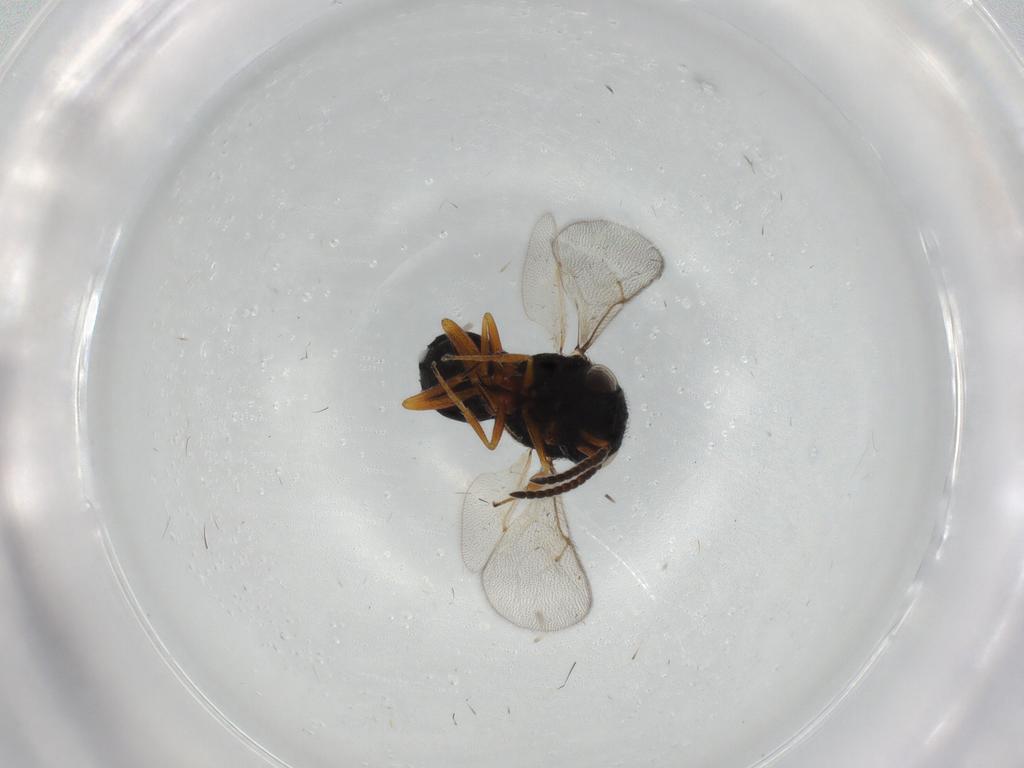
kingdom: Animalia
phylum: Arthropoda
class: Insecta
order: Hymenoptera
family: Scelionidae
